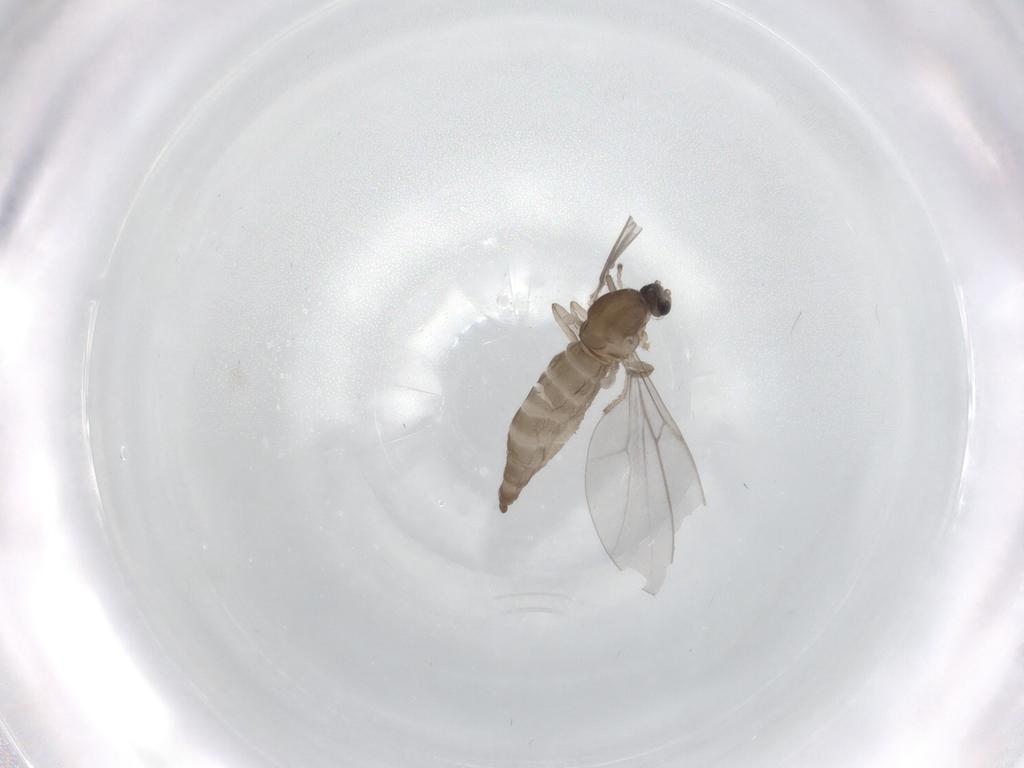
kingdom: Animalia
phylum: Arthropoda
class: Insecta
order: Diptera
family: Cecidomyiidae
